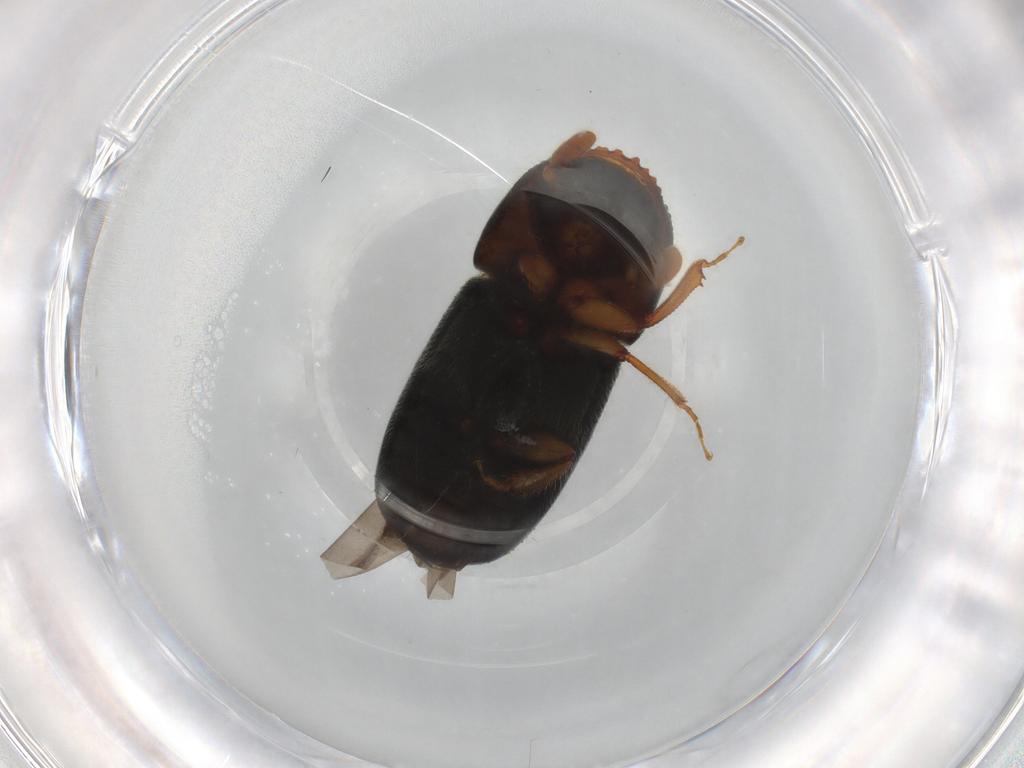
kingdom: Animalia
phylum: Arthropoda
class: Insecta
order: Coleoptera
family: Curculionidae
